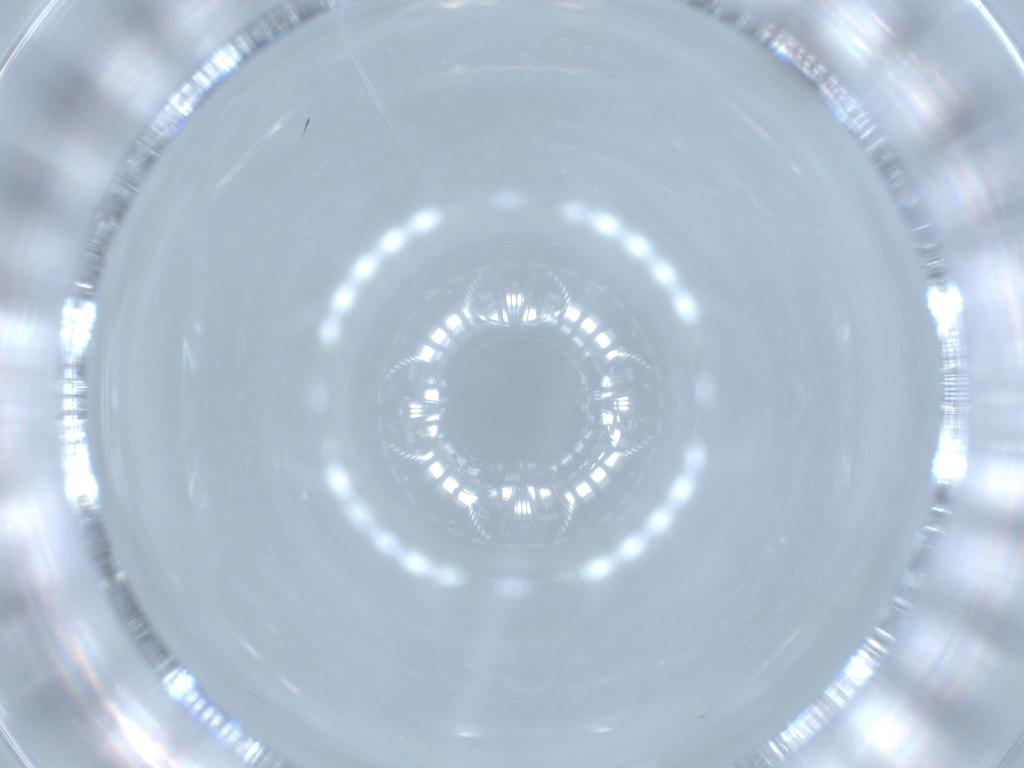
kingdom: Animalia
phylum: Arthropoda
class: Insecta
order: Diptera
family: Cecidomyiidae
